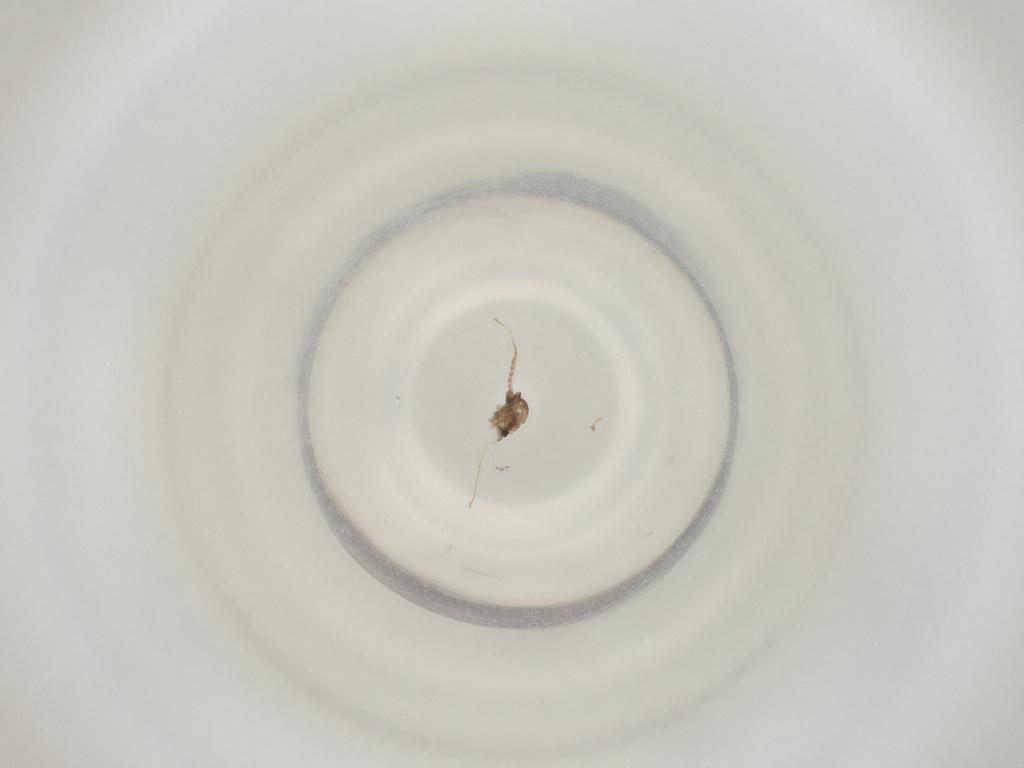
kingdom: Animalia
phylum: Arthropoda
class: Insecta
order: Diptera
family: Cecidomyiidae
